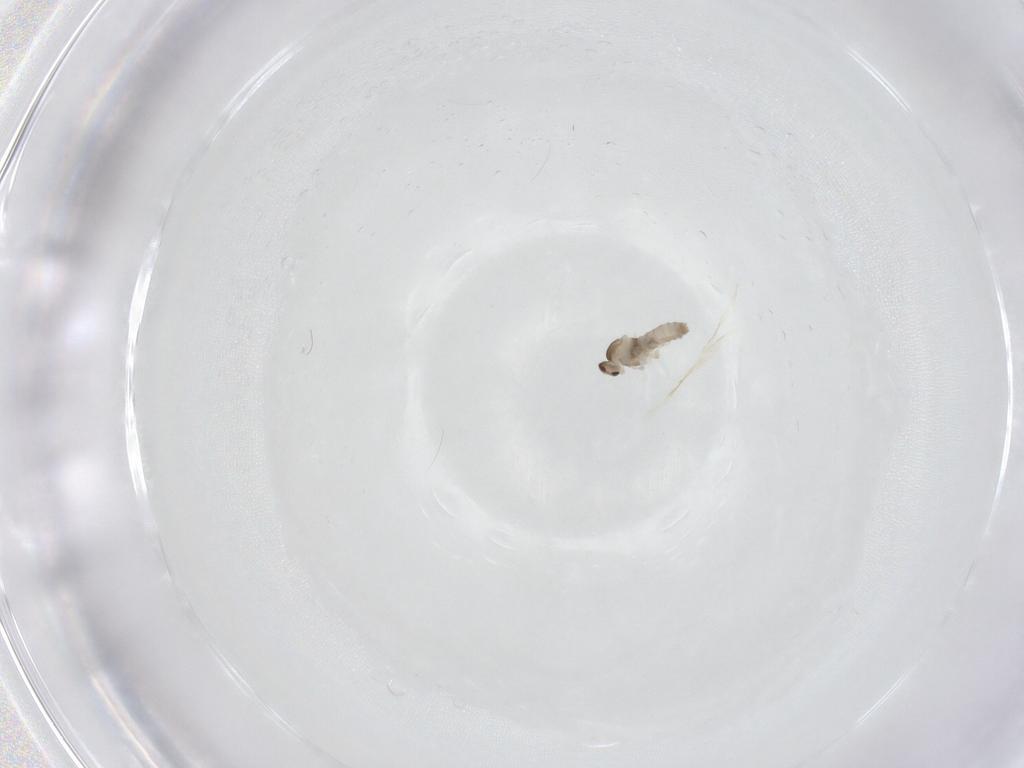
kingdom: Animalia
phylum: Arthropoda
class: Insecta
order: Diptera
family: Cecidomyiidae
